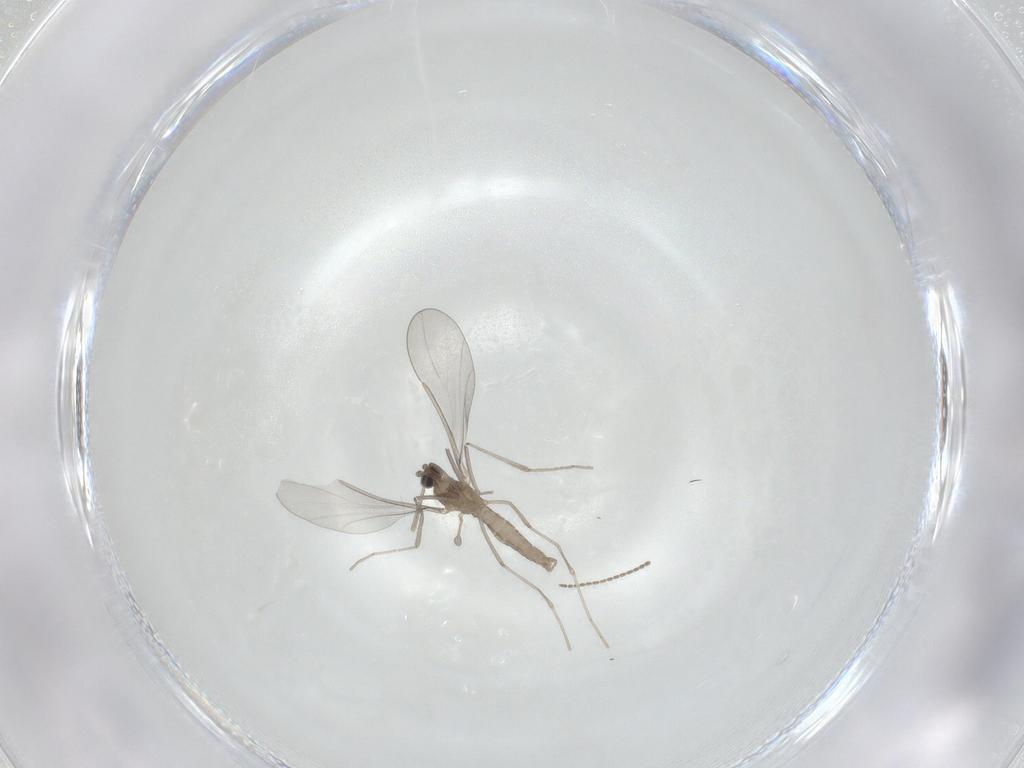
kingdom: Animalia
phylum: Arthropoda
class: Insecta
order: Diptera
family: Cecidomyiidae
